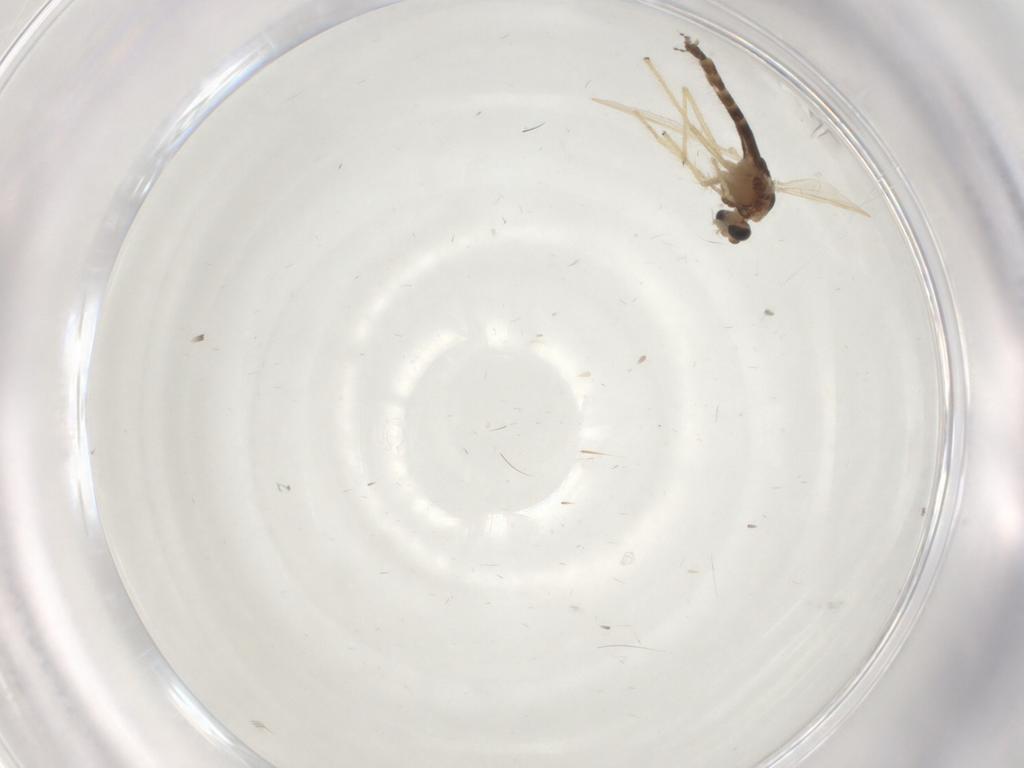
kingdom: Animalia
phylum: Arthropoda
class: Insecta
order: Diptera
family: Chironomidae
